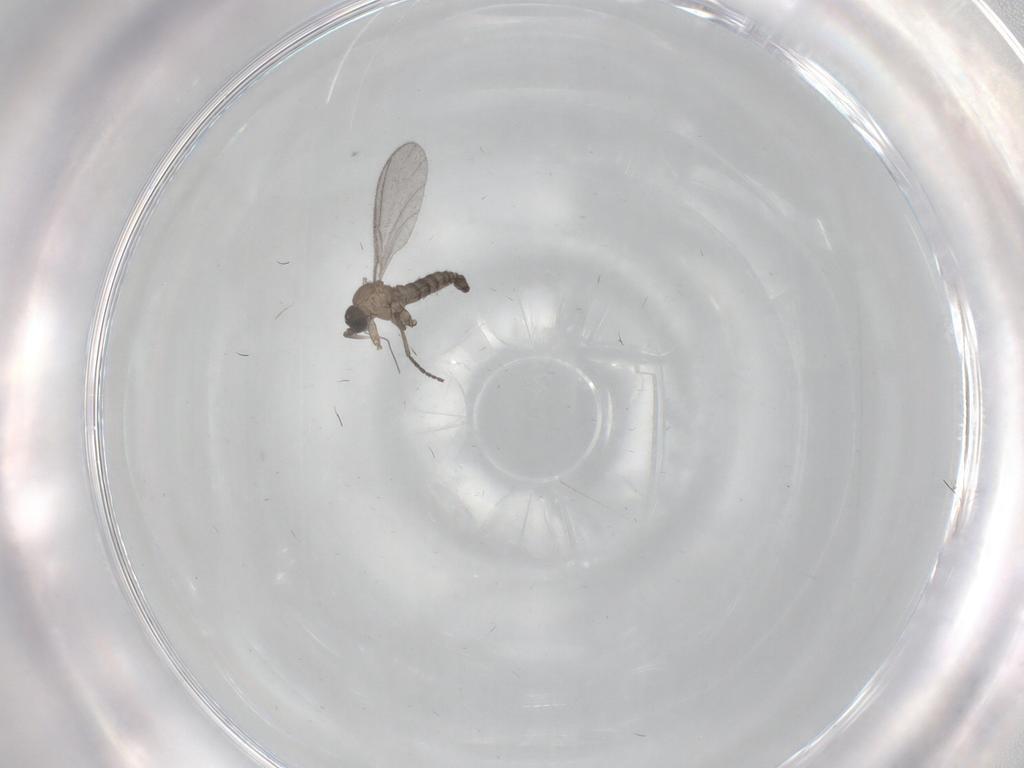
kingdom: Animalia
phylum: Arthropoda
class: Insecta
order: Diptera
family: Sciaridae
